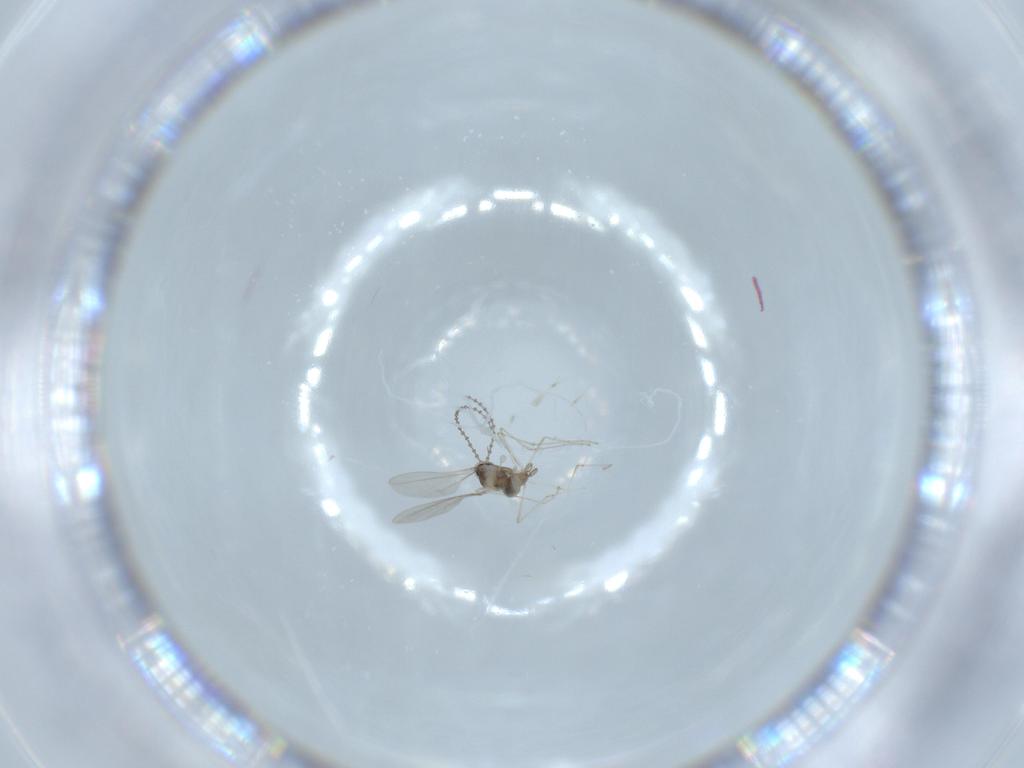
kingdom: Animalia
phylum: Arthropoda
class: Insecta
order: Diptera
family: Cecidomyiidae
